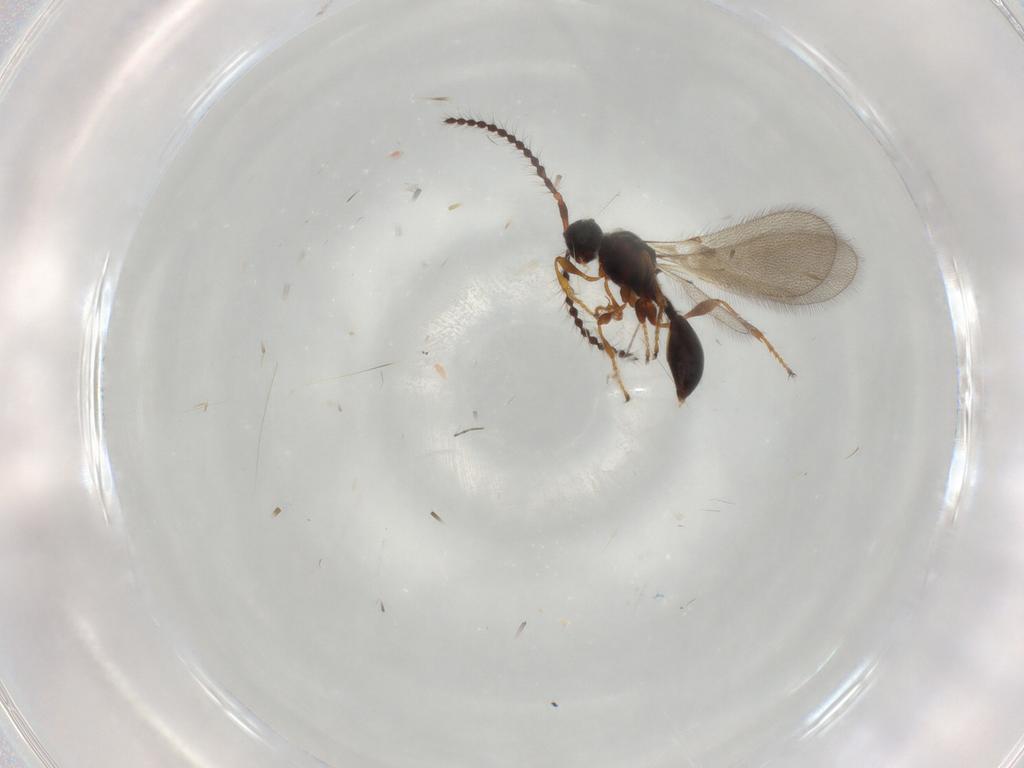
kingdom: Animalia
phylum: Arthropoda
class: Insecta
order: Hymenoptera
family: Diapriidae
